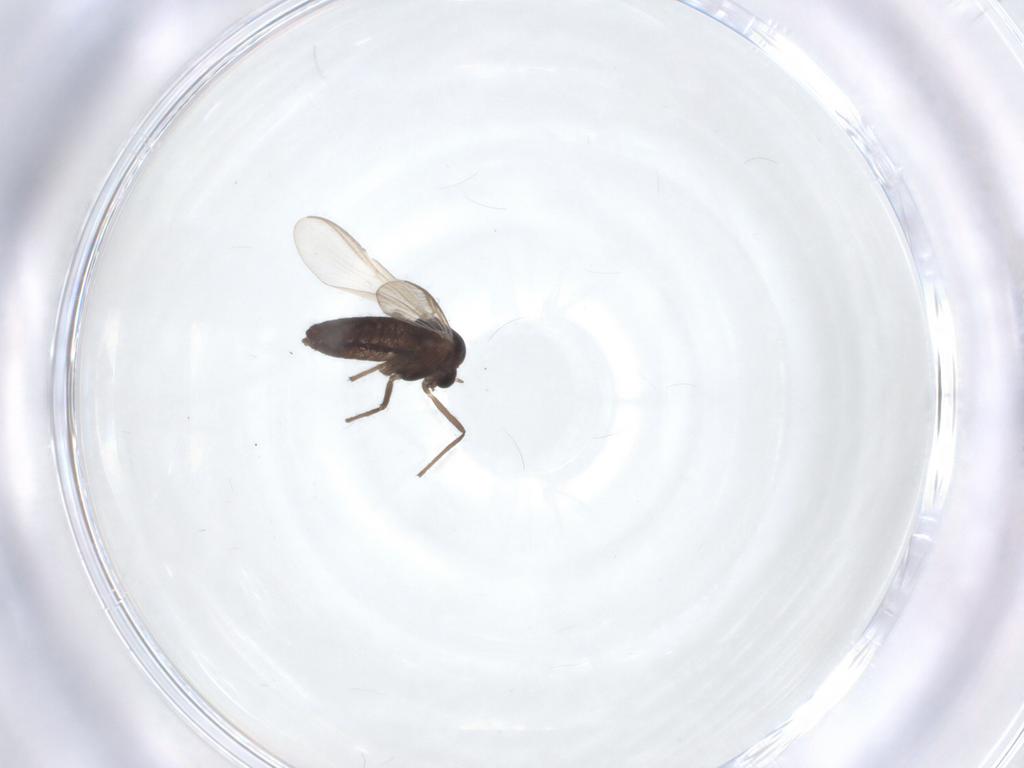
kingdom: Animalia
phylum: Arthropoda
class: Insecta
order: Diptera
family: Chironomidae
